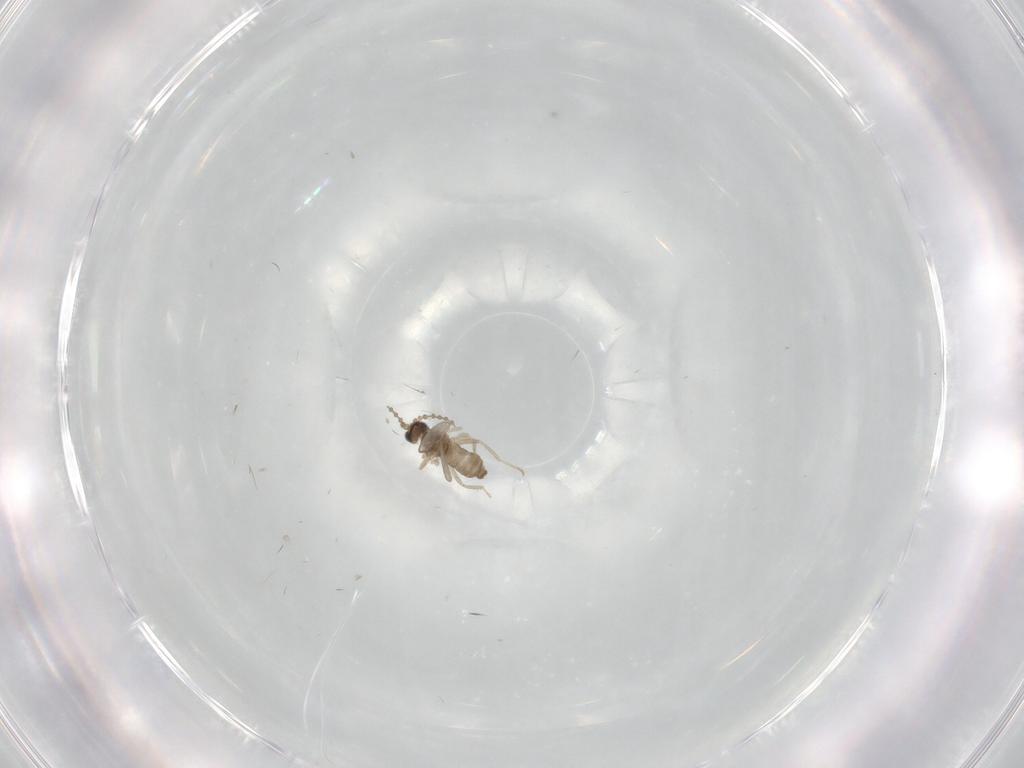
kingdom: Animalia
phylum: Arthropoda
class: Insecta
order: Diptera
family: Cecidomyiidae
